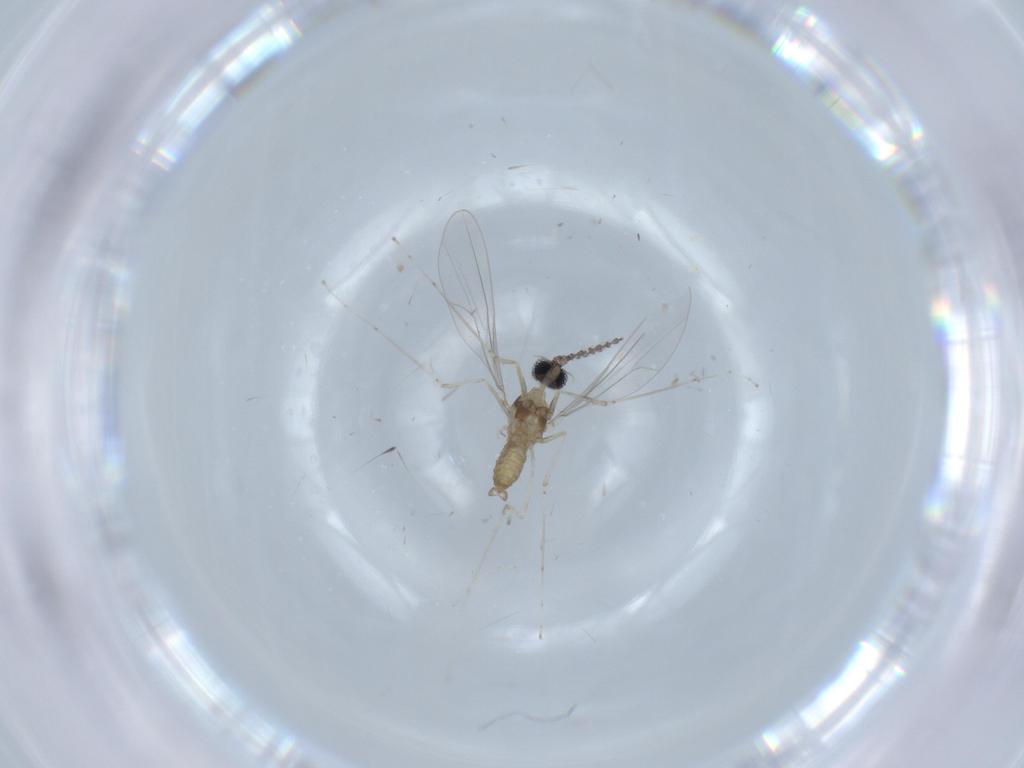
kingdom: Animalia
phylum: Arthropoda
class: Insecta
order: Diptera
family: Cecidomyiidae
